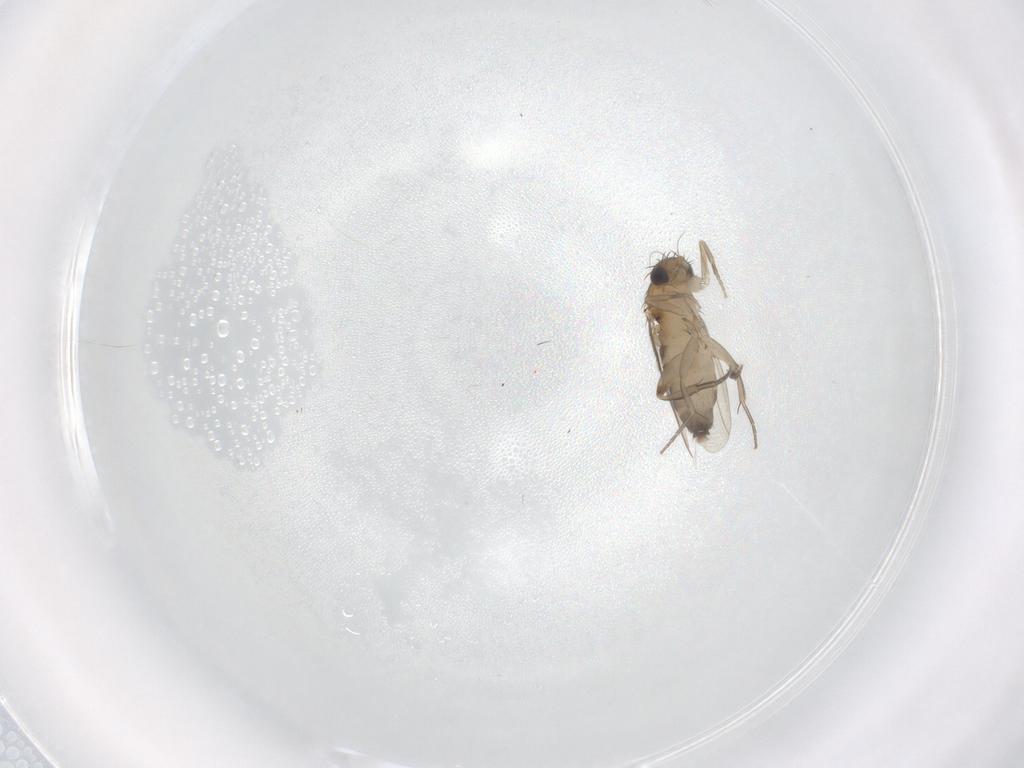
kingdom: Animalia
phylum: Arthropoda
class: Insecta
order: Diptera
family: Phoridae
